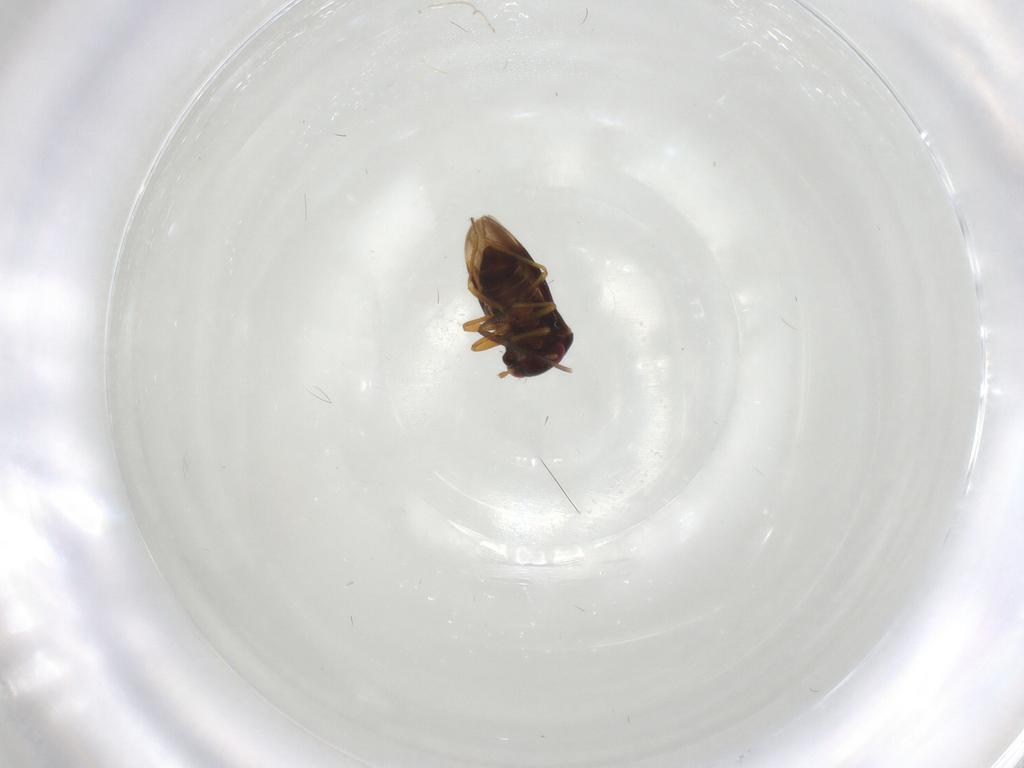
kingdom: Animalia
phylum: Arthropoda
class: Insecta
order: Hemiptera
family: Schizopteridae
